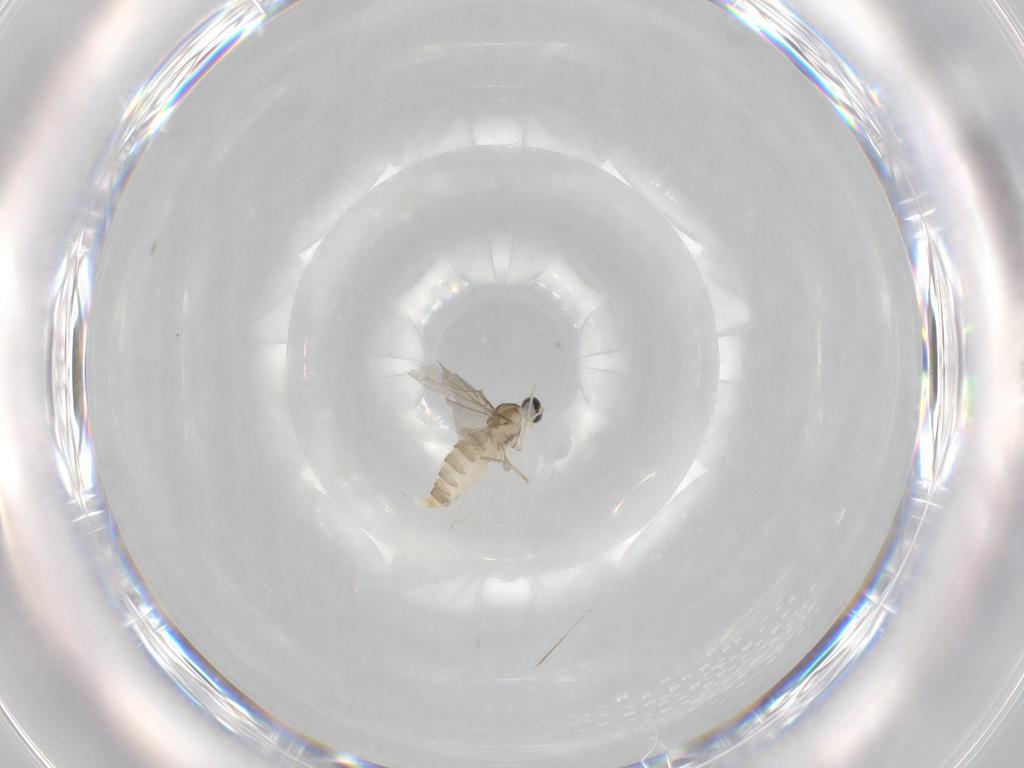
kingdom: Animalia
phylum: Arthropoda
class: Insecta
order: Diptera
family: Cecidomyiidae
